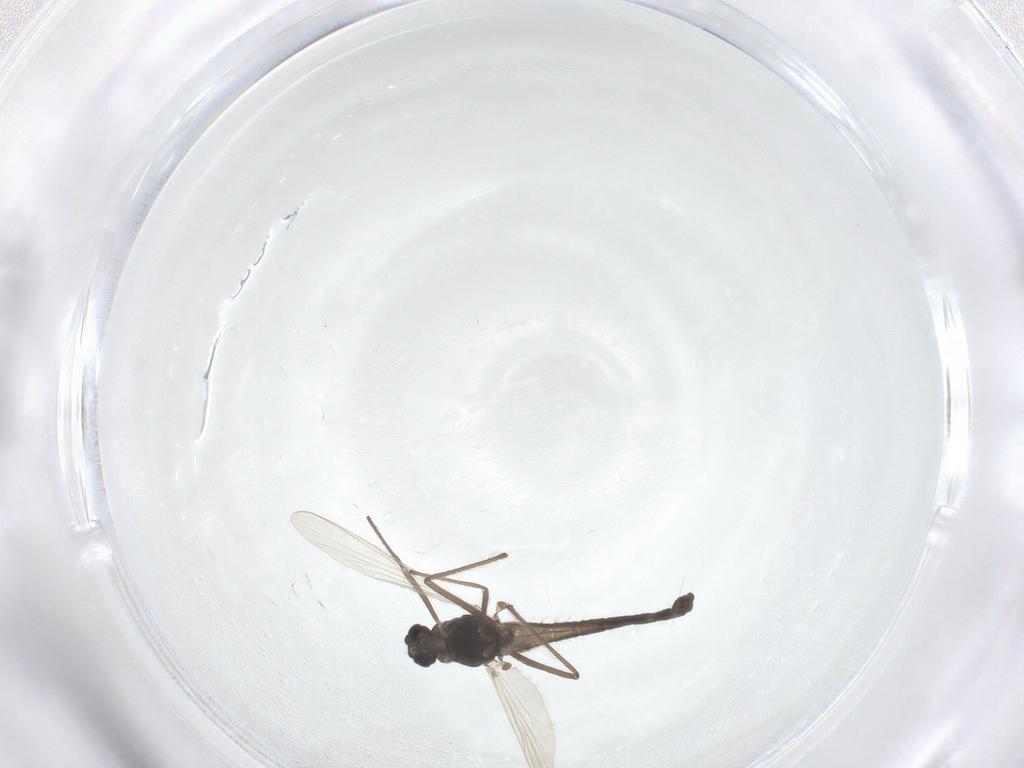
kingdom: Animalia
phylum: Arthropoda
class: Insecta
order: Diptera
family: Chironomidae
